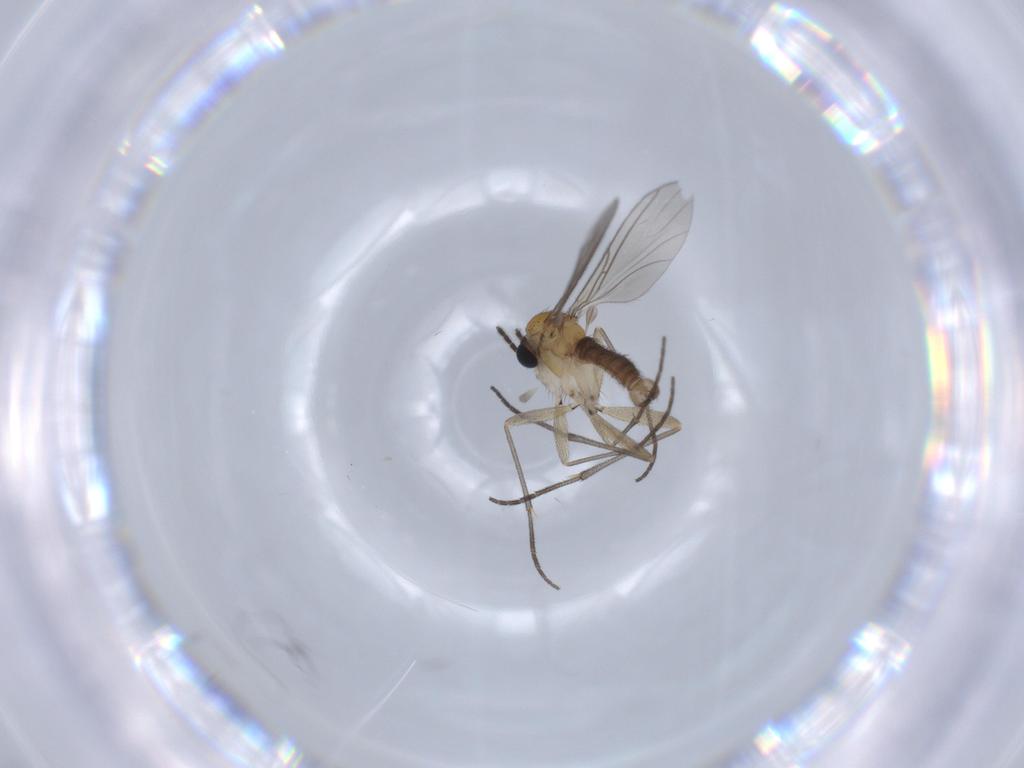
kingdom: Animalia
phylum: Arthropoda
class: Insecta
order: Diptera
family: Sciaridae
